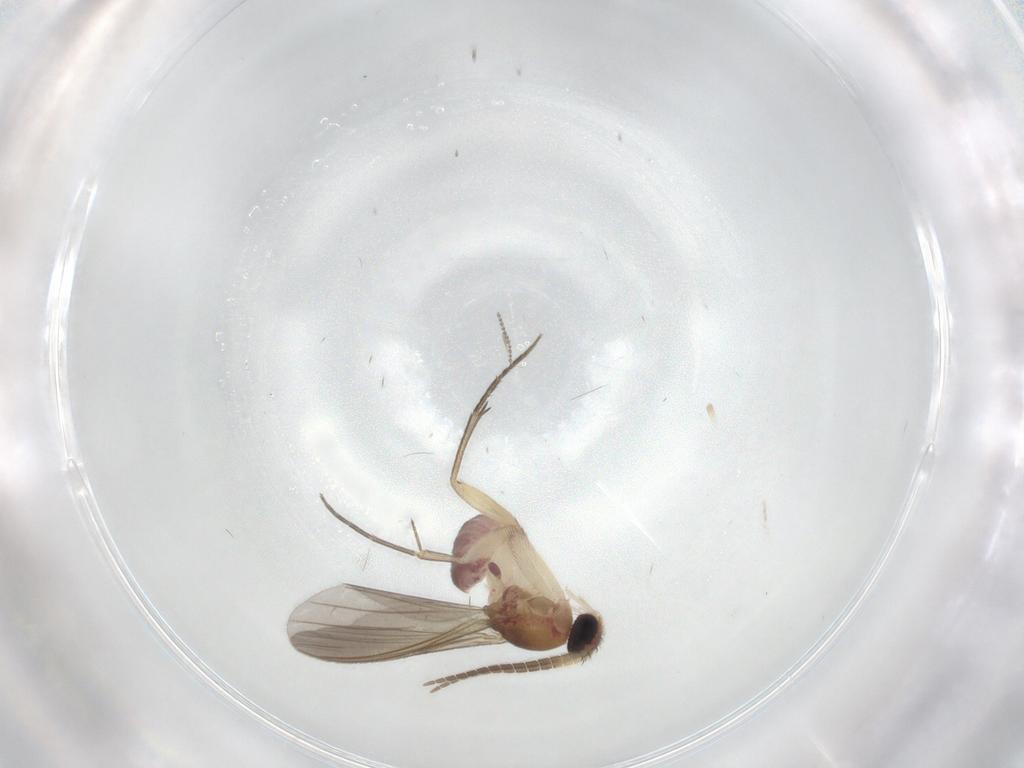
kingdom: Animalia
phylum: Arthropoda
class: Insecta
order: Diptera
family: Mycetophilidae
